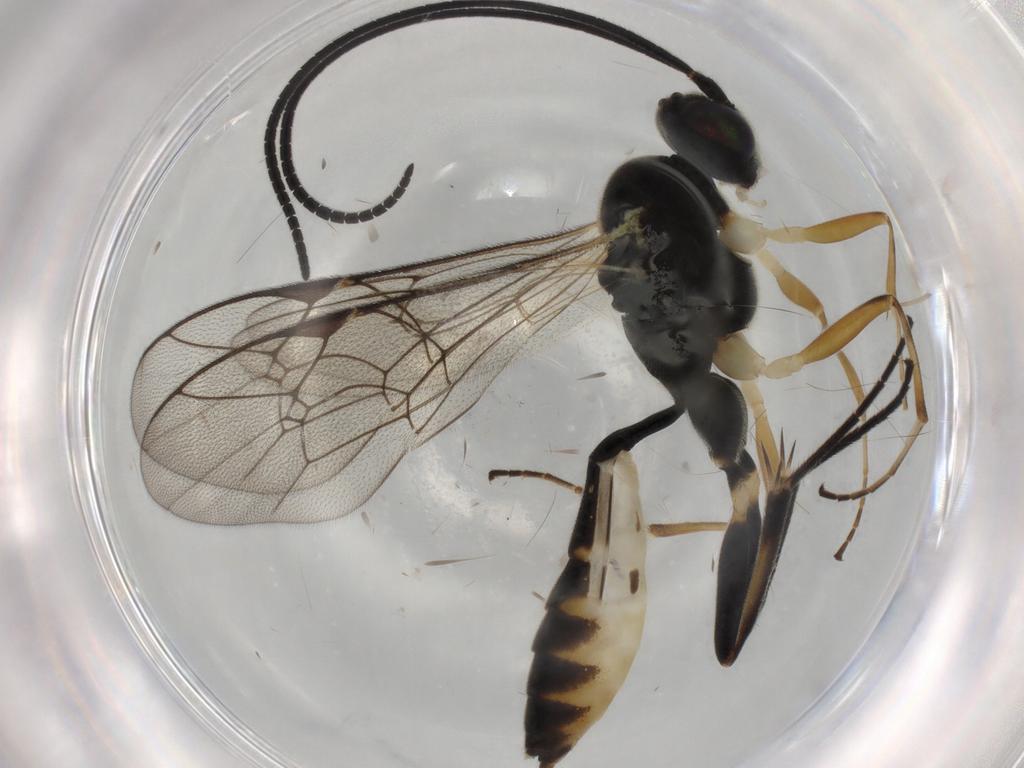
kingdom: Animalia
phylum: Arthropoda
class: Insecta
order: Hymenoptera
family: Ichneumonidae
